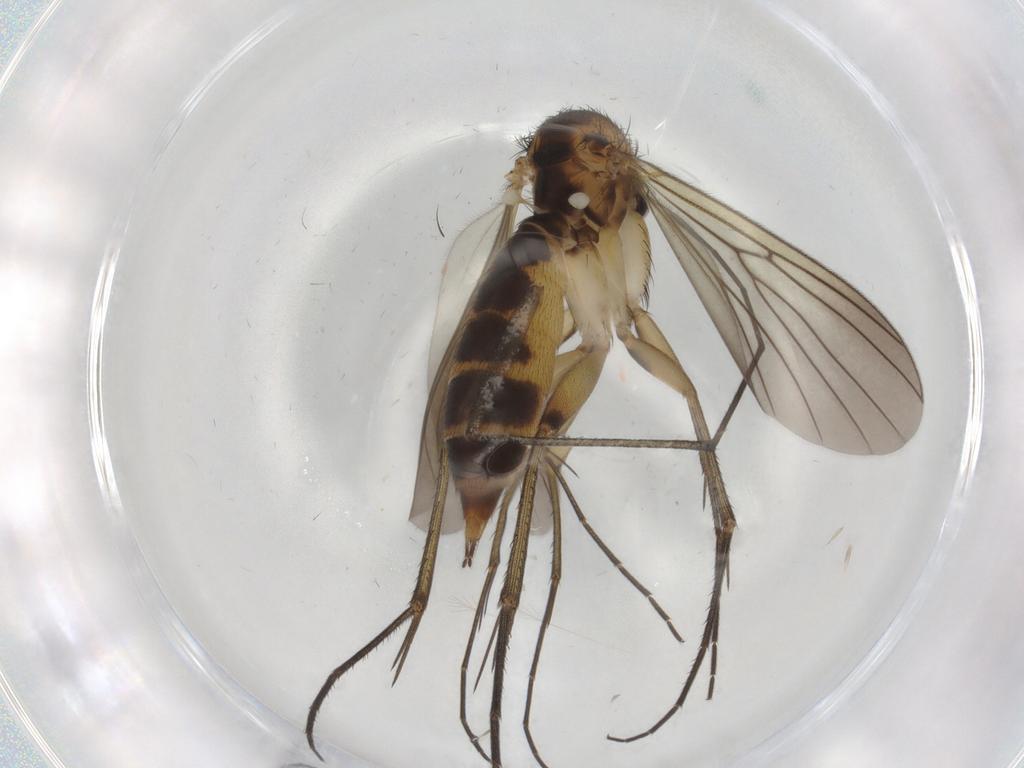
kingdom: Animalia
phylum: Arthropoda
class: Insecta
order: Diptera
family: Mycetophilidae
